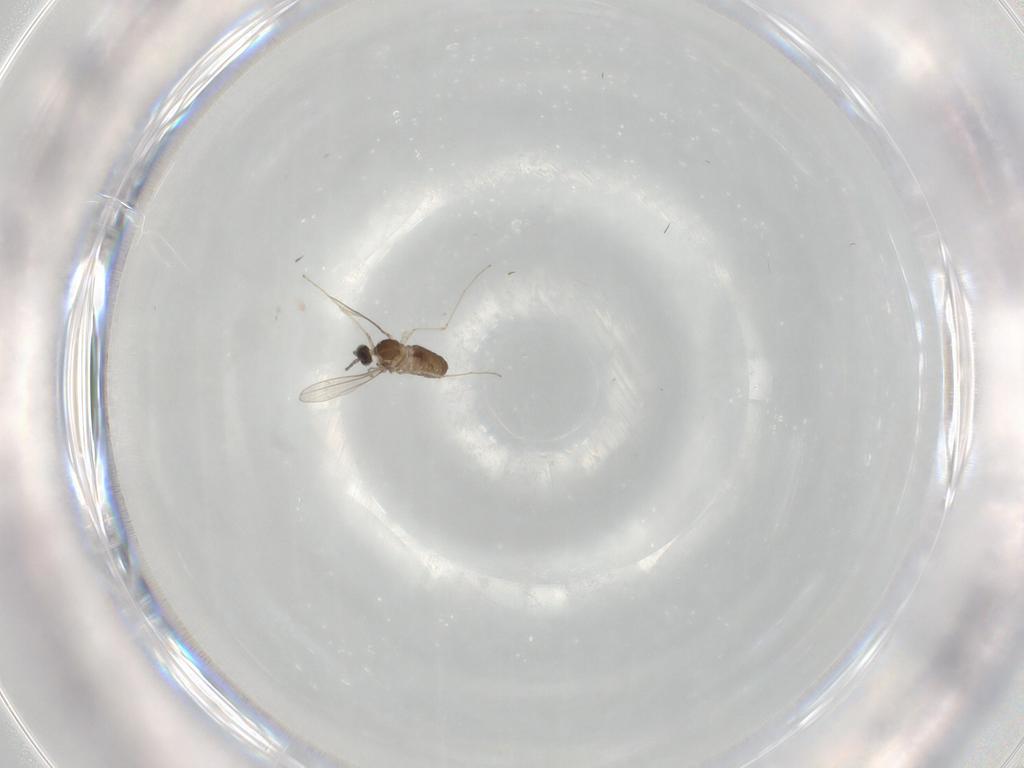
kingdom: Animalia
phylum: Arthropoda
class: Insecta
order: Diptera
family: Cecidomyiidae
